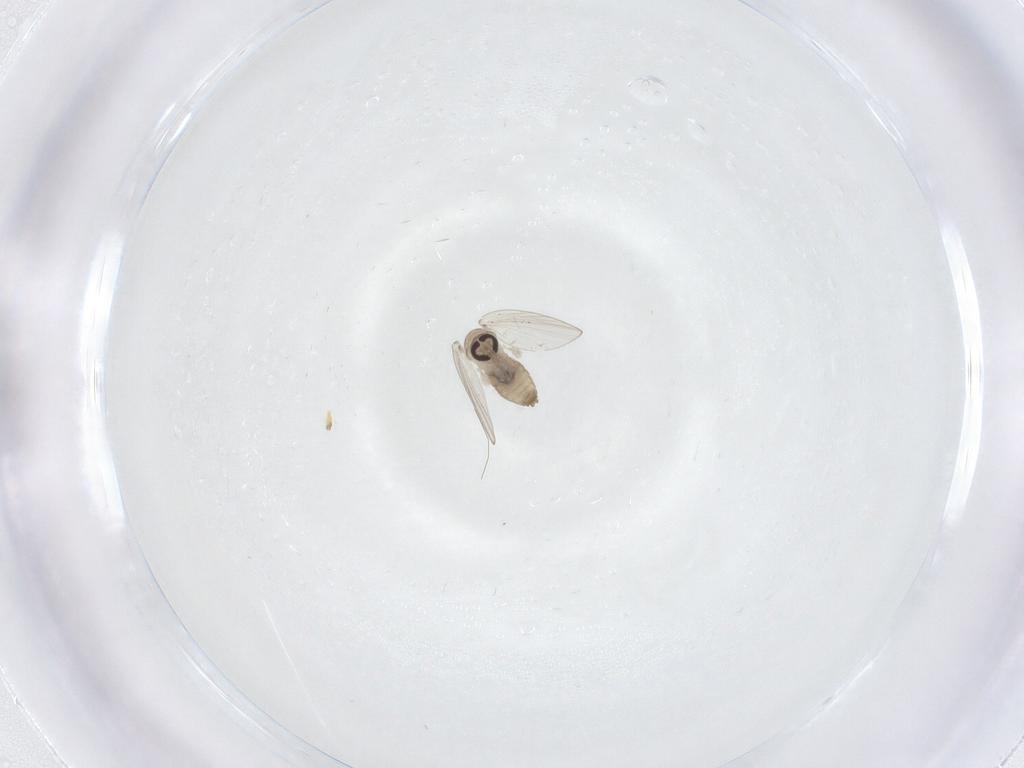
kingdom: Animalia
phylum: Arthropoda
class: Insecta
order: Diptera
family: Psychodidae
